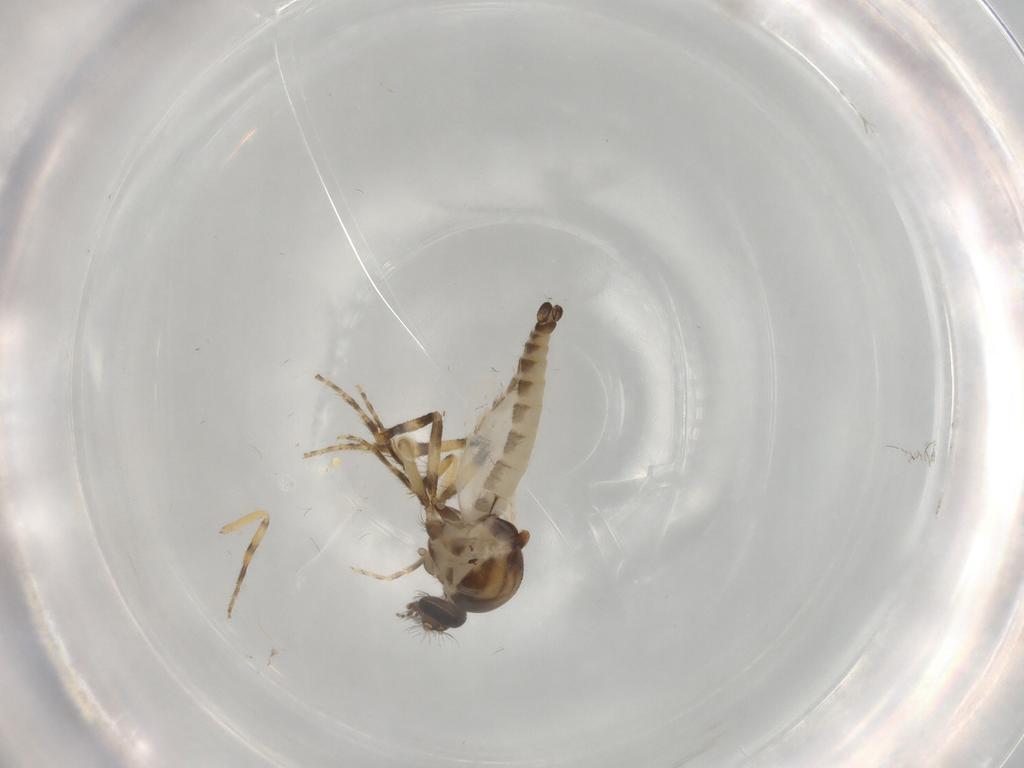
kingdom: Animalia
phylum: Arthropoda
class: Insecta
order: Diptera
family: Ceratopogonidae
